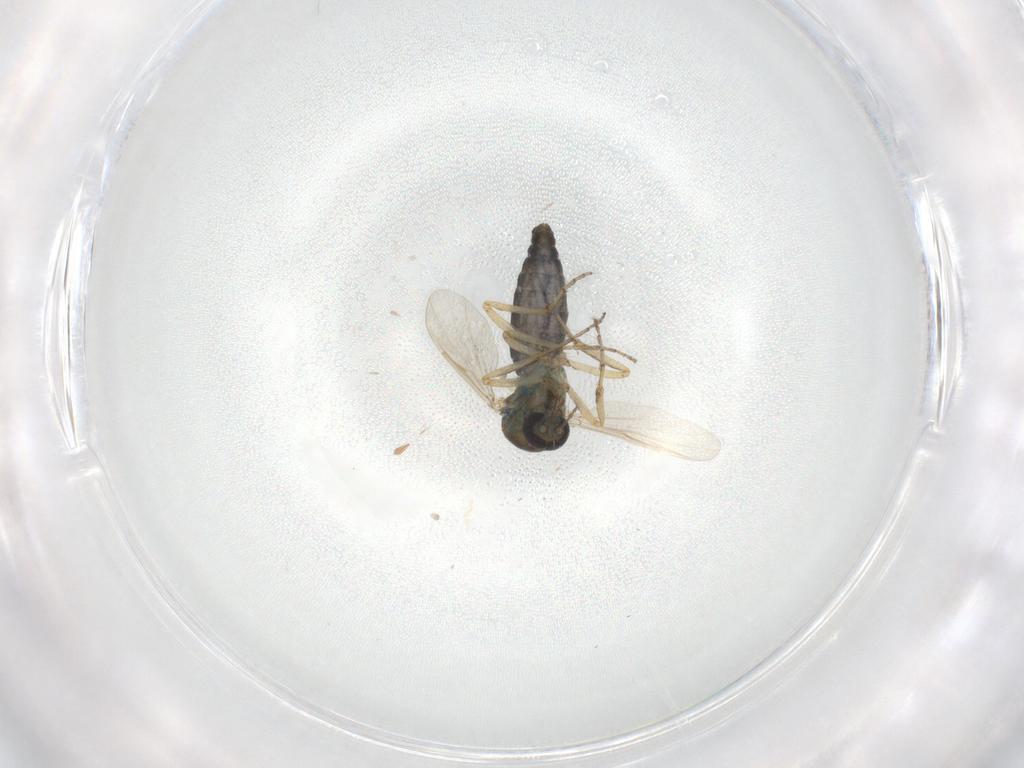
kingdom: Animalia
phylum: Arthropoda
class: Insecta
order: Diptera
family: Ceratopogonidae
